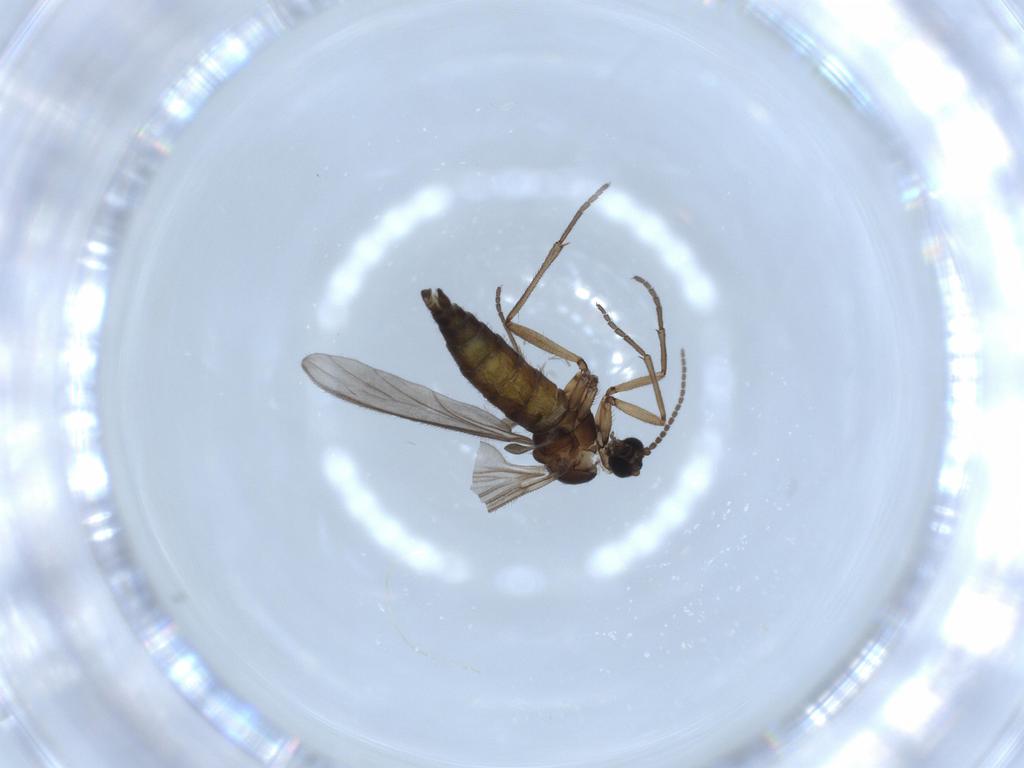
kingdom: Animalia
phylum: Arthropoda
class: Insecta
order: Diptera
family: Sciaridae
